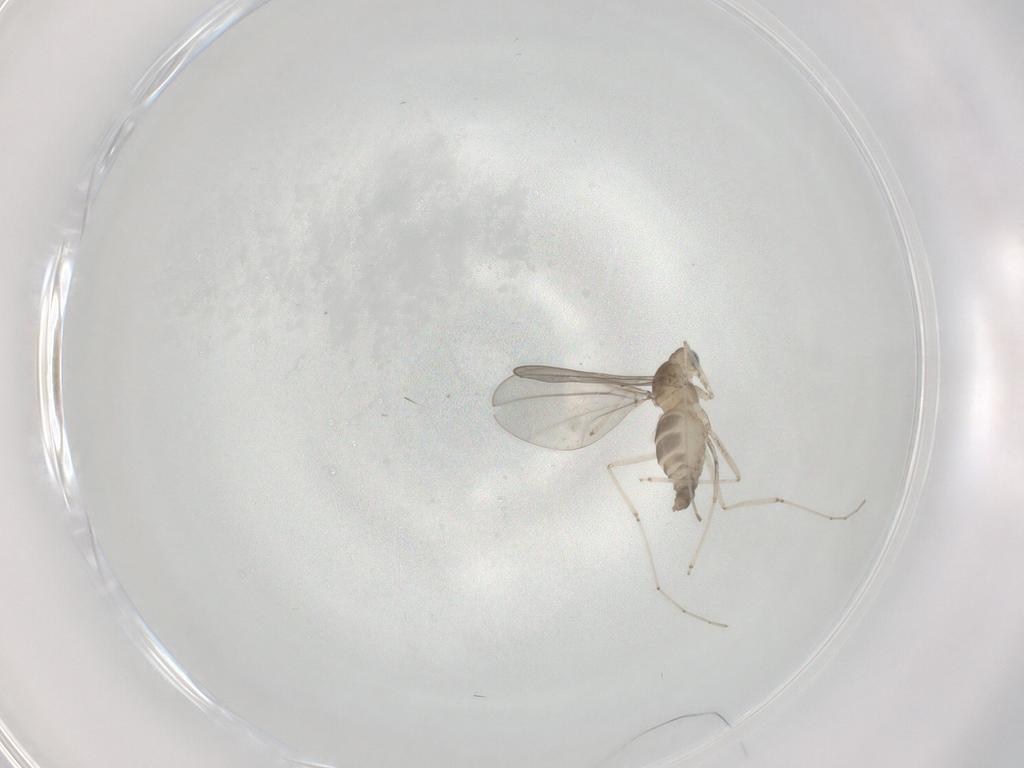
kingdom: Animalia
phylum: Arthropoda
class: Insecta
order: Diptera
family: Cecidomyiidae
